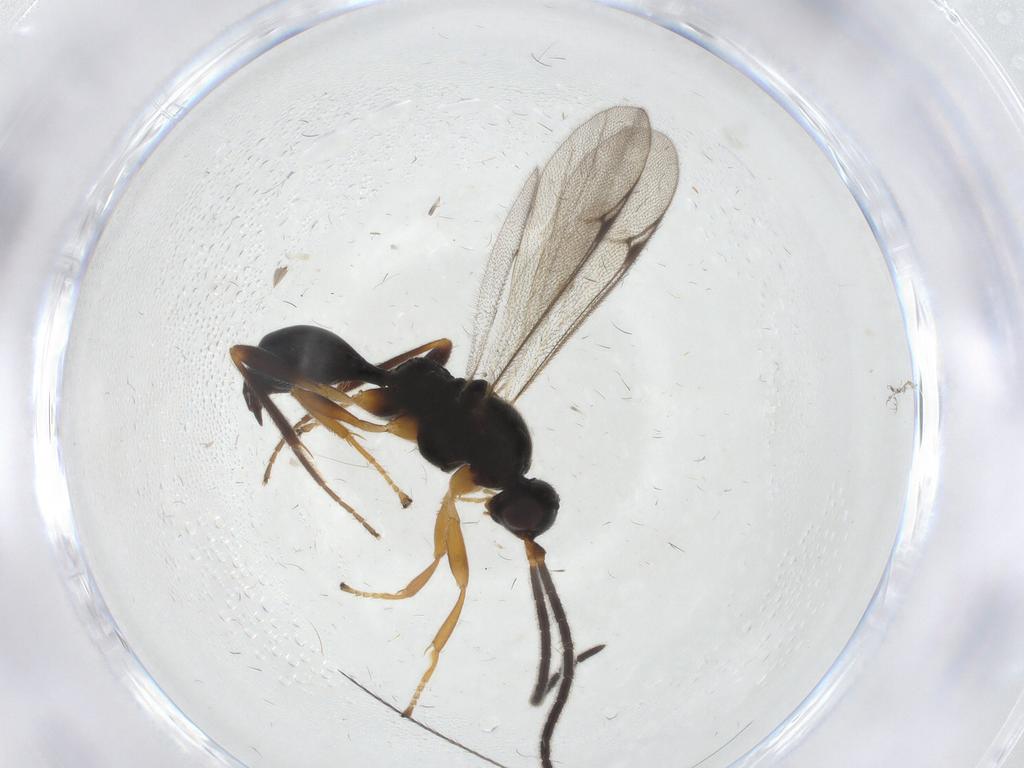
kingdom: Animalia
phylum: Arthropoda
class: Insecta
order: Hymenoptera
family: Proctotrupidae
